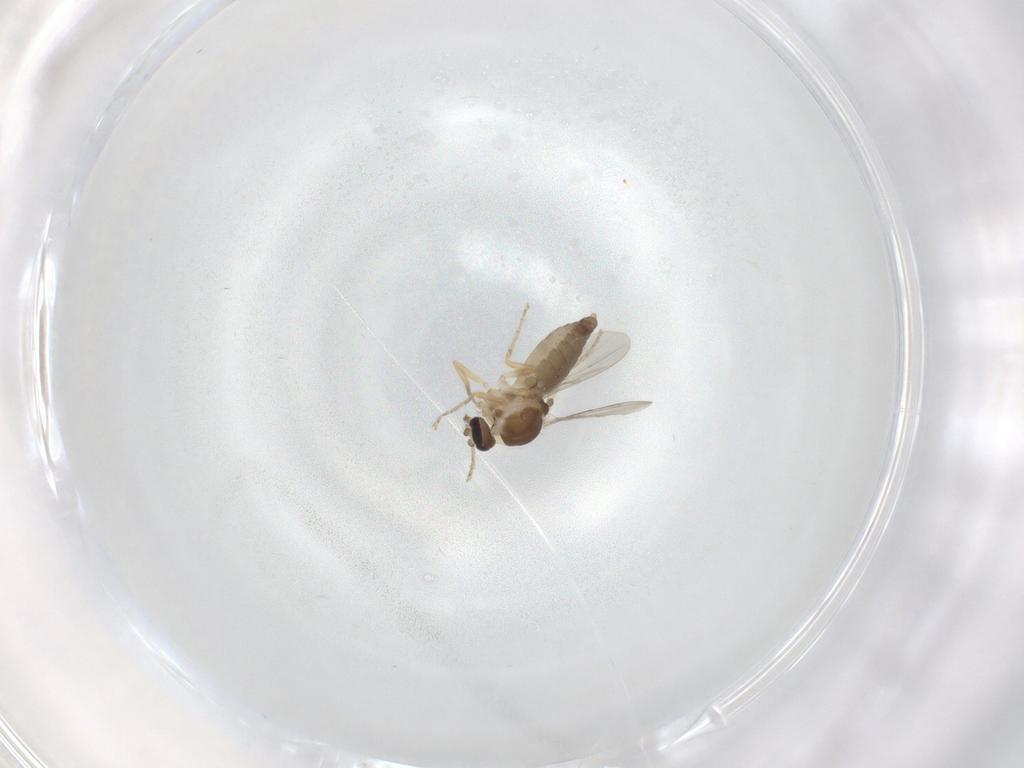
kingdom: Animalia
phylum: Arthropoda
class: Insecta
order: Diptera
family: Ceratopogonidae
